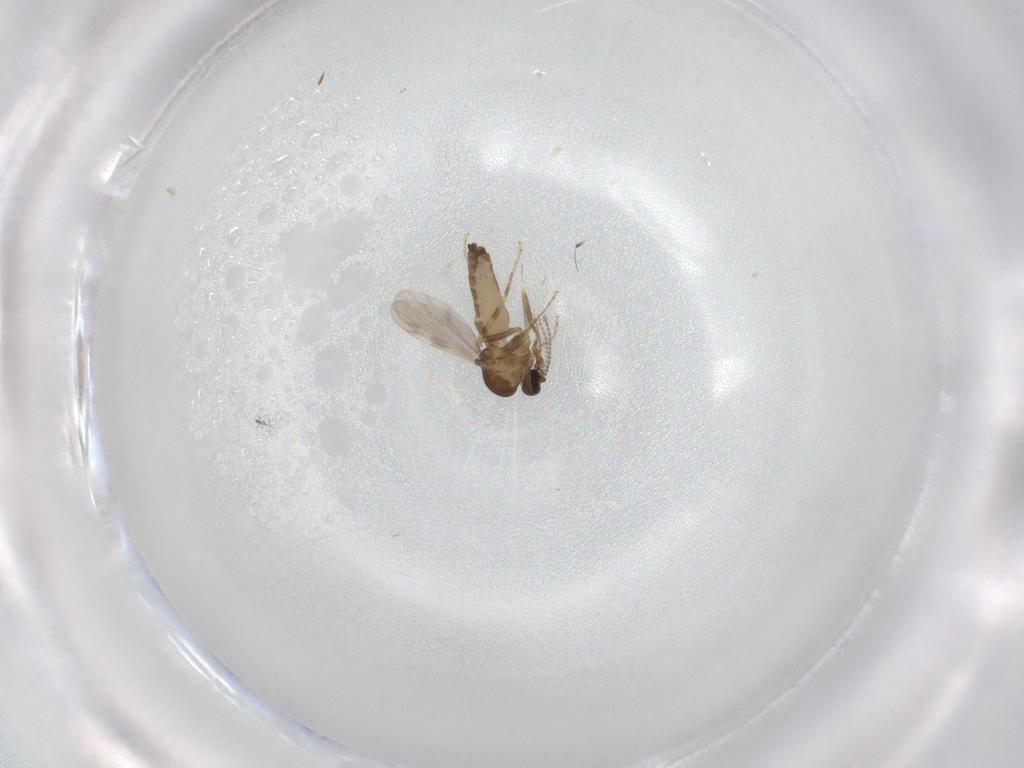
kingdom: Animalia
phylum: Arthropoda
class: Insecta
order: Diptera
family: Ceratopogonidae
